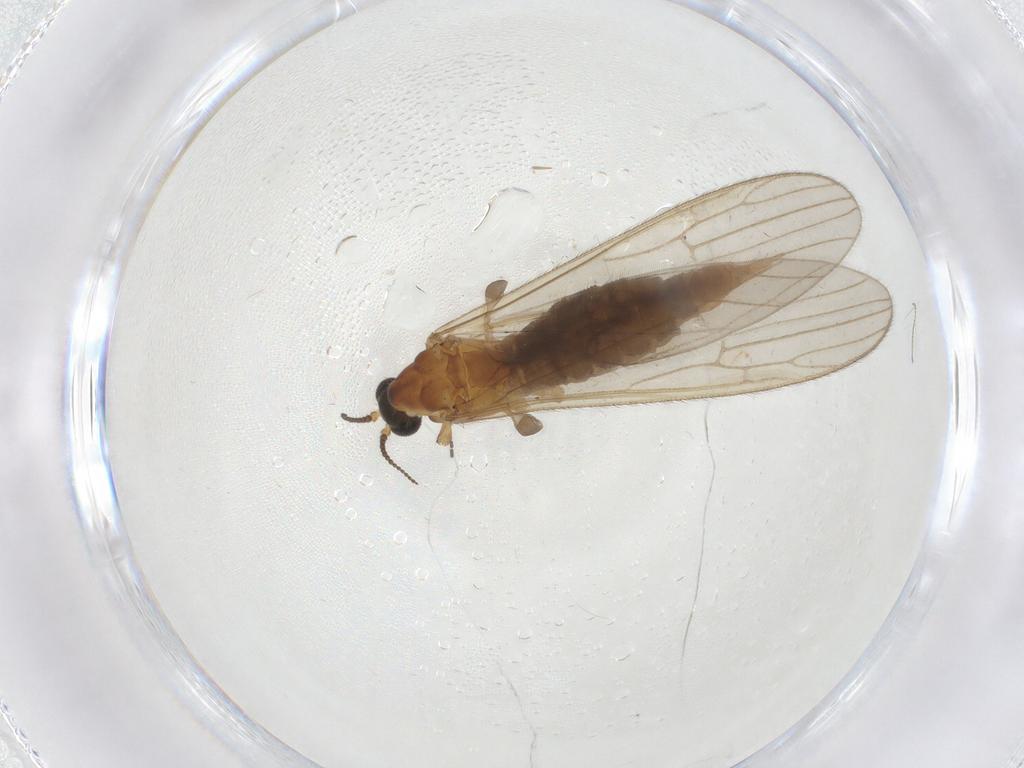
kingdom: Animalia
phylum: Arthropoda
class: Insecta
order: Diptera
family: Limoniidae
